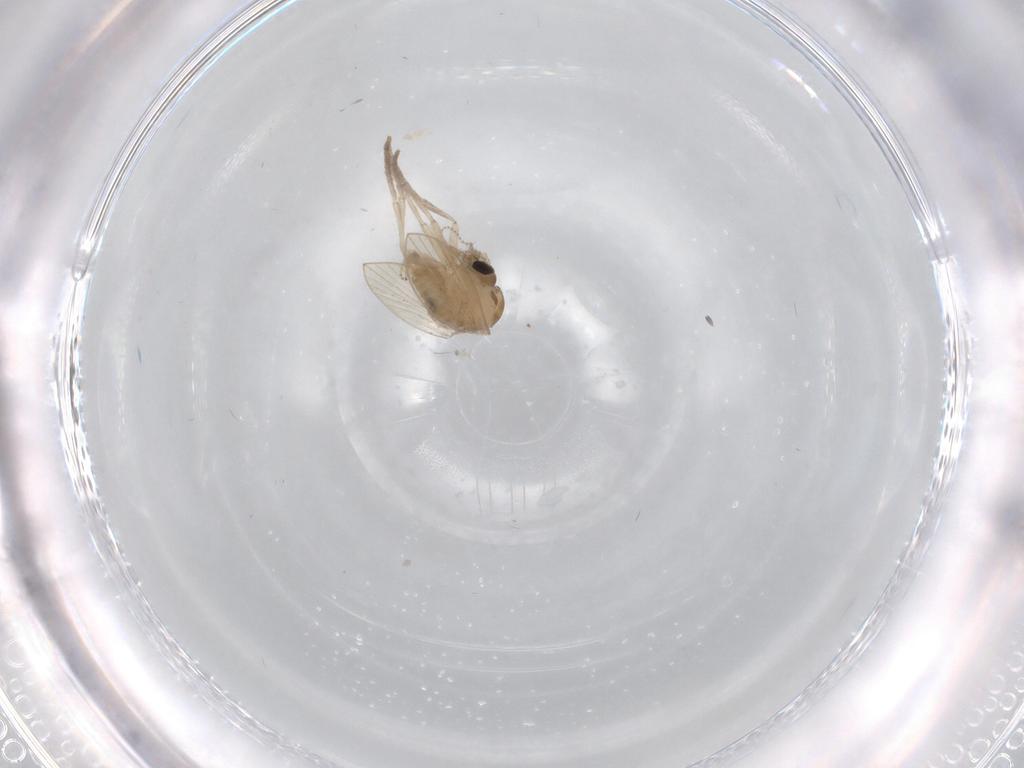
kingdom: Animalia
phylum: Arthropoda
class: Insecta
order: Diptera
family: Psychodidae
